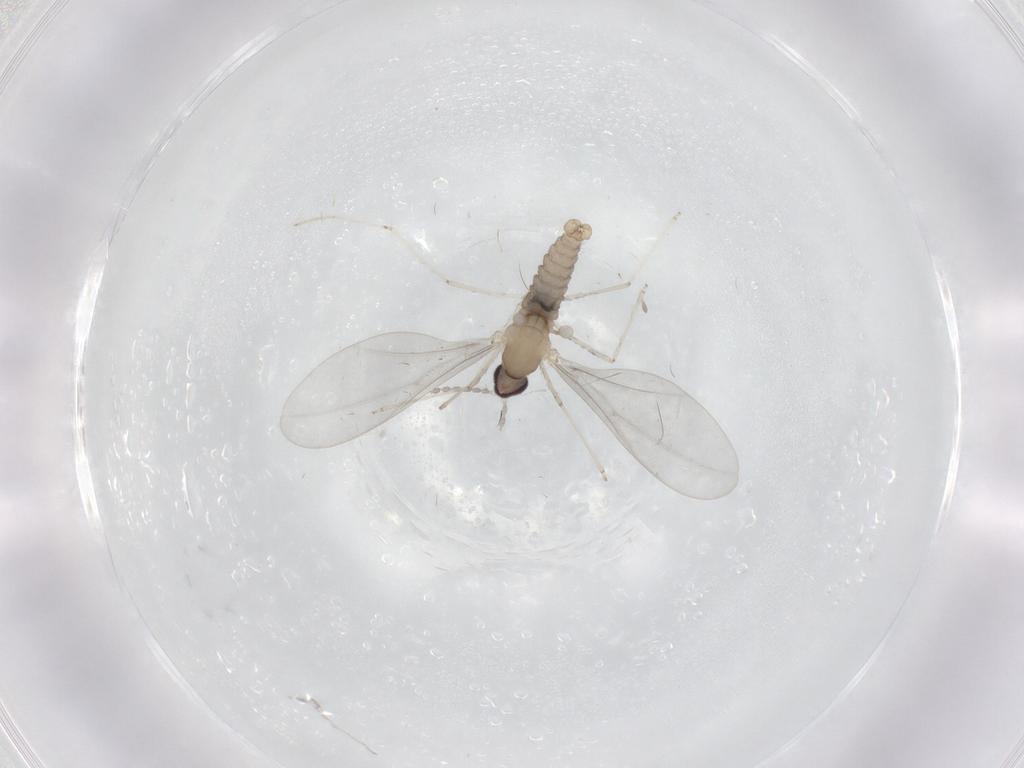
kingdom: Animalia
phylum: Arthropoda
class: Insecta
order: Diptera
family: Cecidomyiidae
